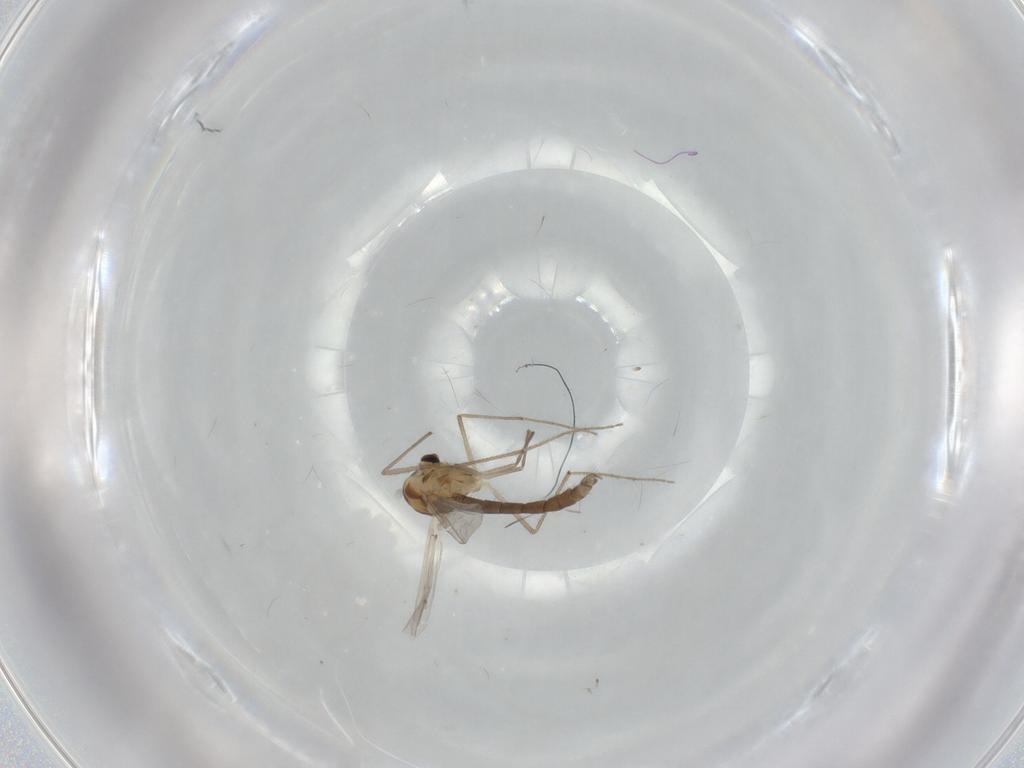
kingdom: Animalia
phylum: Arthropoda
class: Insecta
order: Diptera
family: Chironomidae
